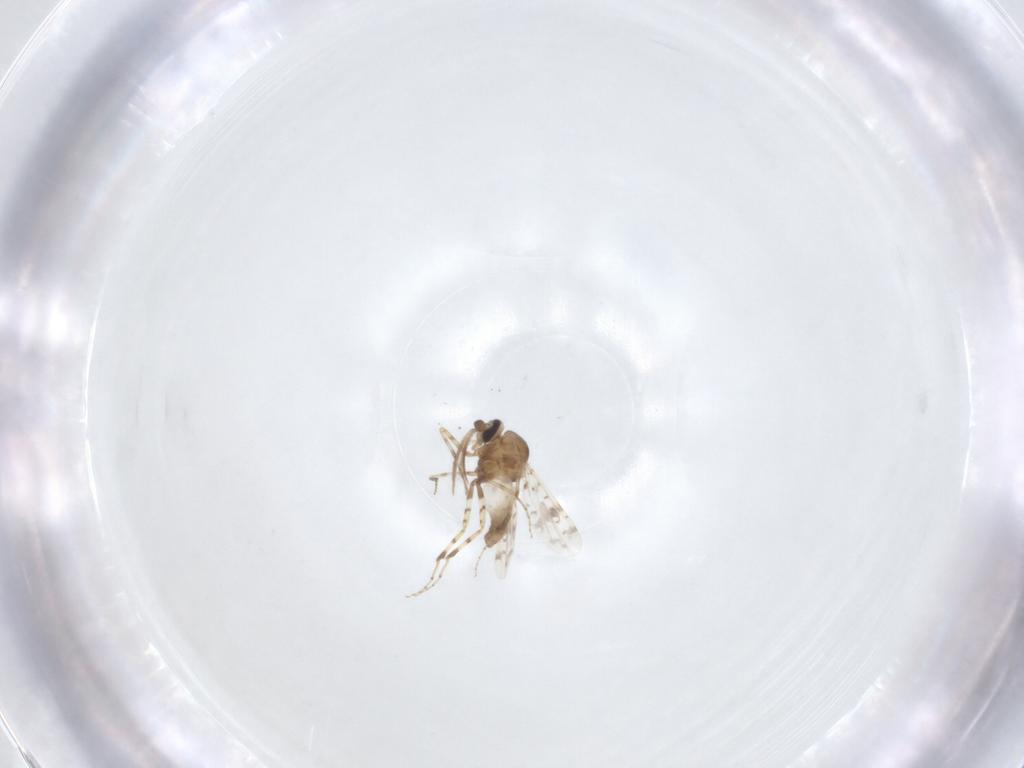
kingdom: Animalia
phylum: Arthropoda
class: Insecta
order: Diptera
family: Ceratopogonidae
